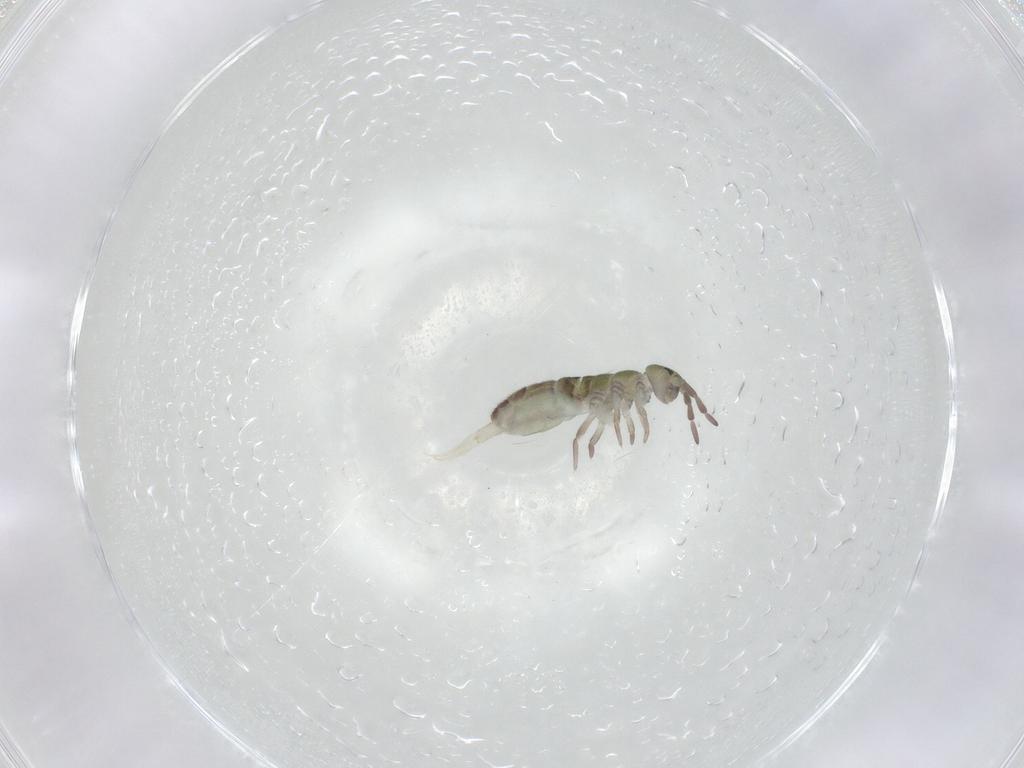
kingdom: Animalia
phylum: Arthropoda
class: Collembola
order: Entomobryomorpha
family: Isotomidae
